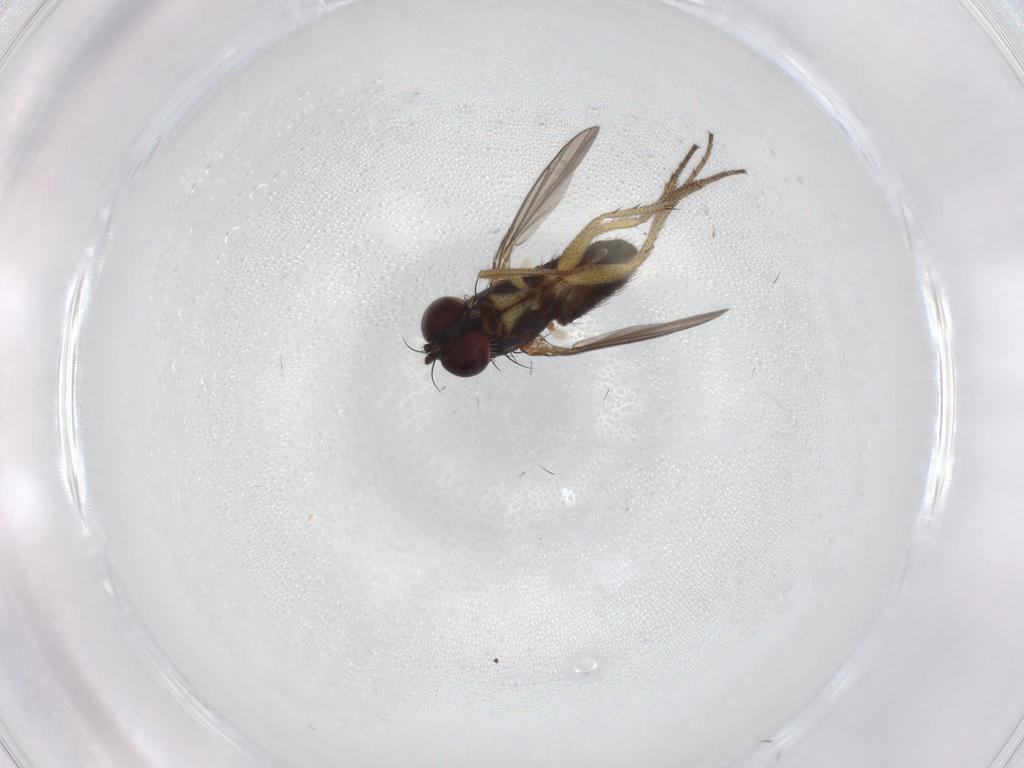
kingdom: Animalia
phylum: Arthropoda
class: Insecta
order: Diptera
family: Dolichopodidae
